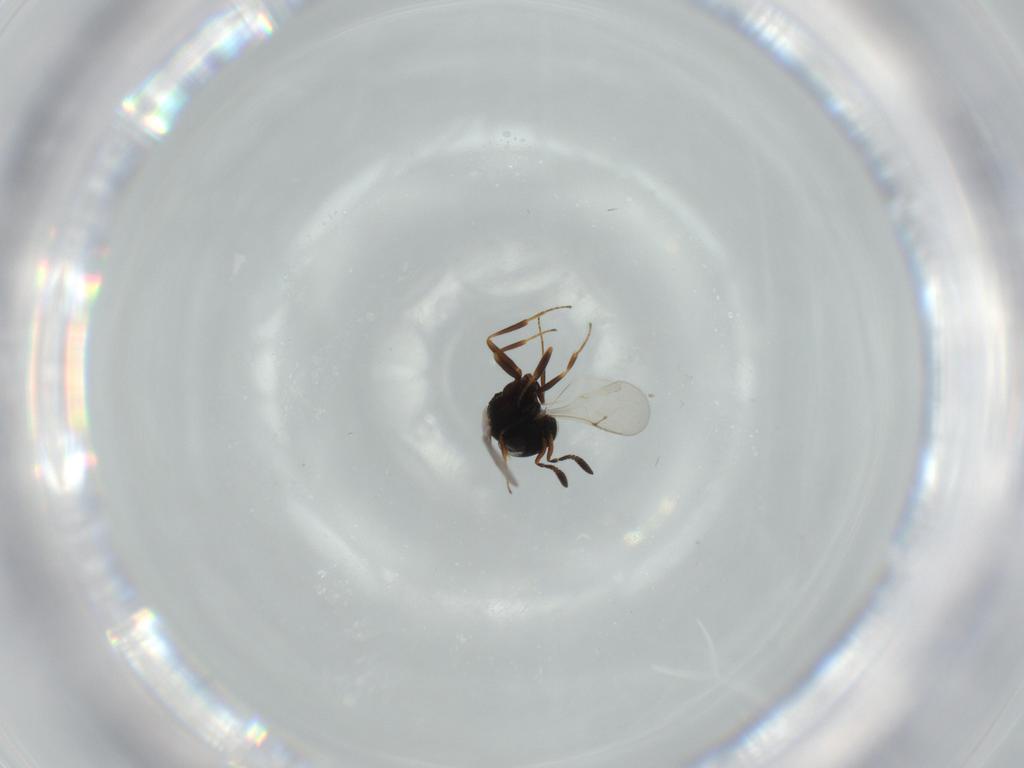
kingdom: Animalia
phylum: Arthropoda
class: Insecta
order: Hymenoptera
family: Scelionidae
